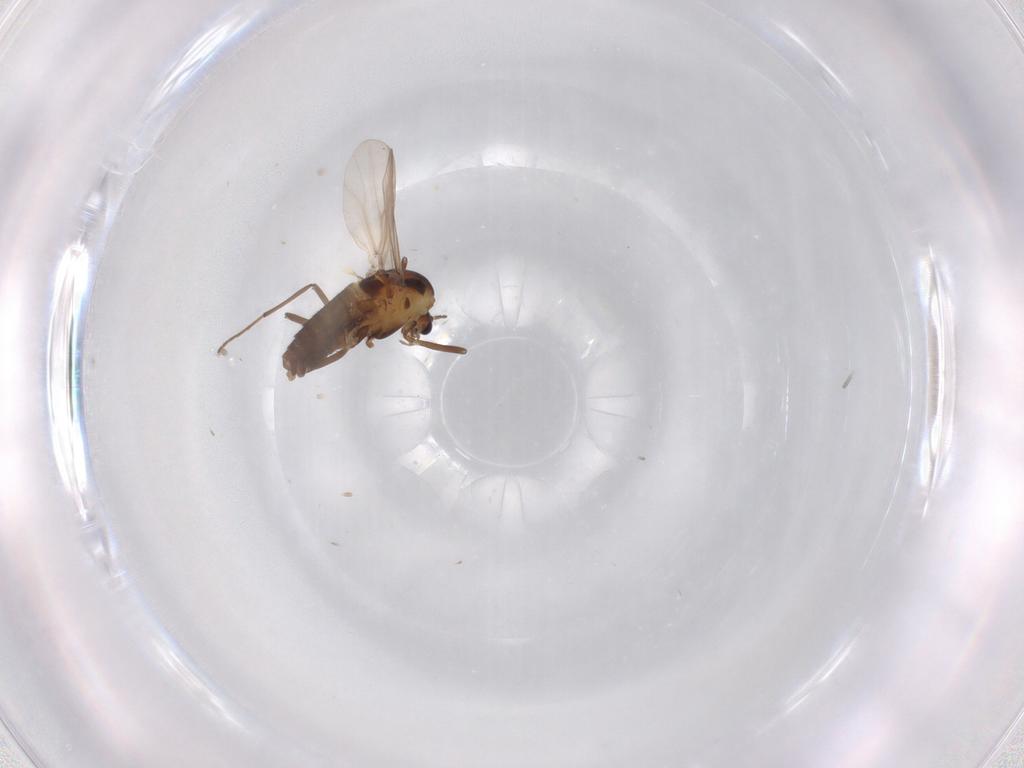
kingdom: Animalia
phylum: Arthropoda
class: Insecta
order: Diptera
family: Chironomidae
